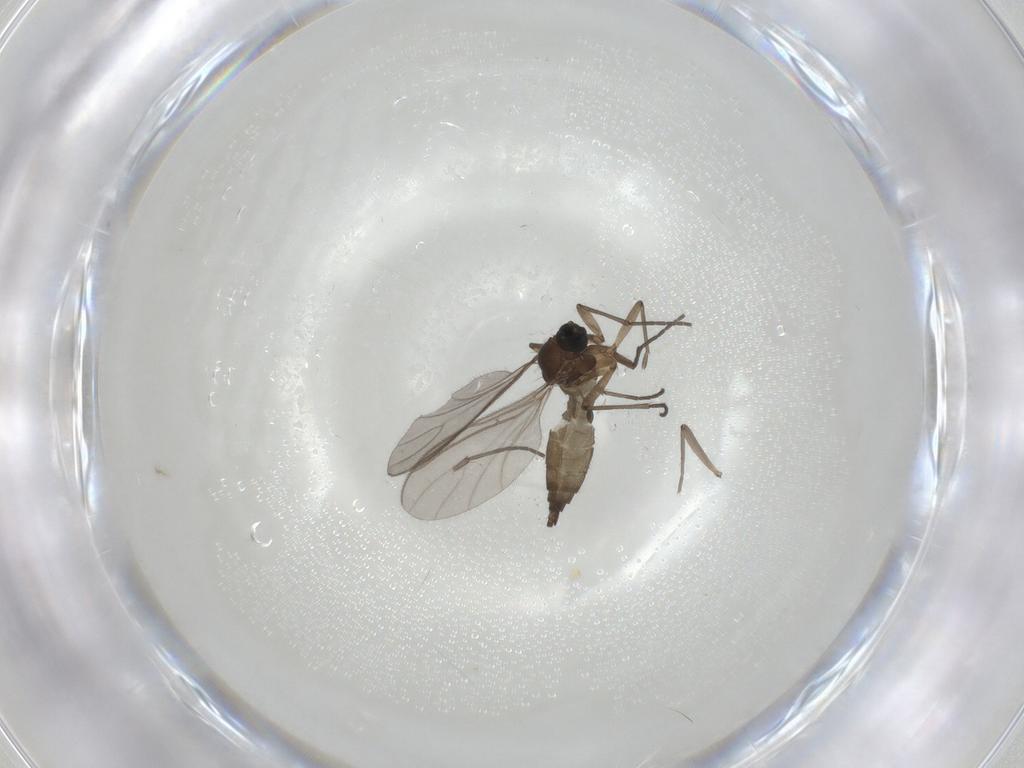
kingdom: Animalia
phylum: Arthropoda
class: Insecta
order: Diptera
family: Sciaridae
